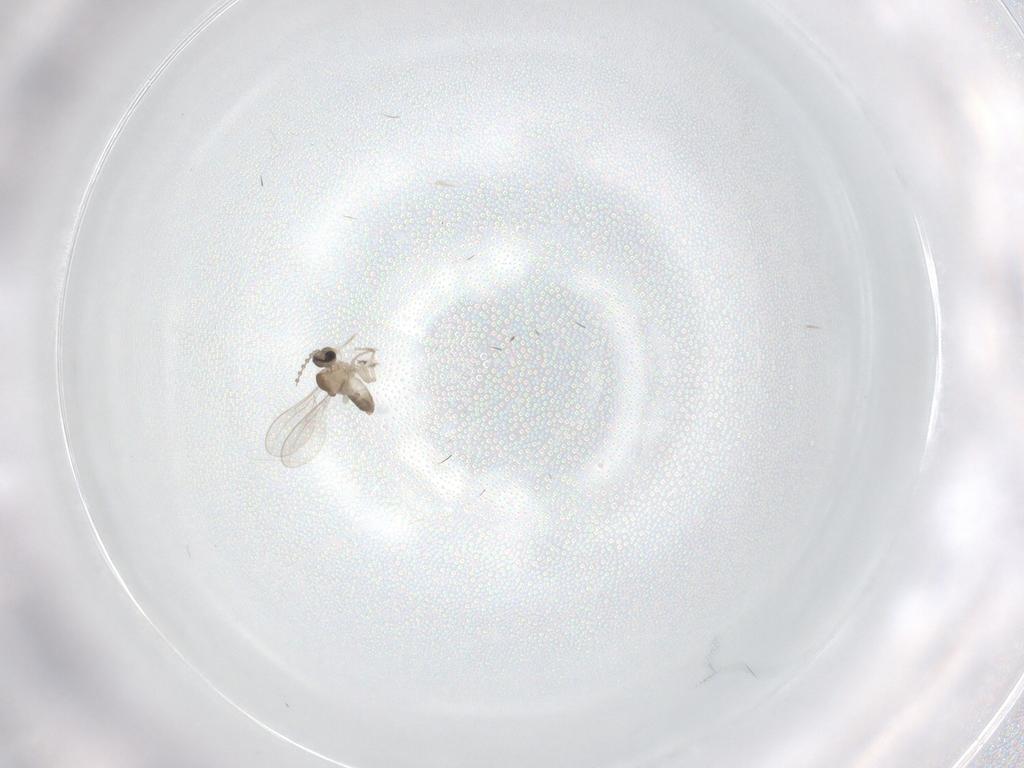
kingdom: Animalia
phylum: Arthropoda
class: Insecta
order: Diptera
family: Cecidomyiidae
